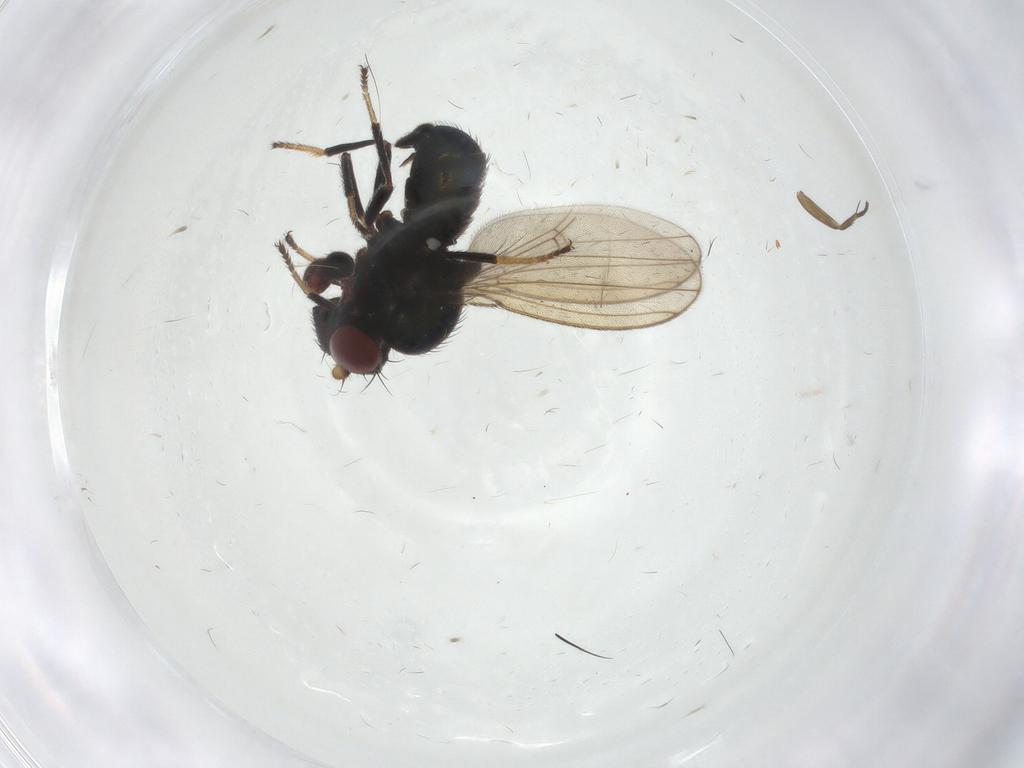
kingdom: Animalia
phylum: Arthropoda
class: Insecta
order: Diptera
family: Ephydridae
